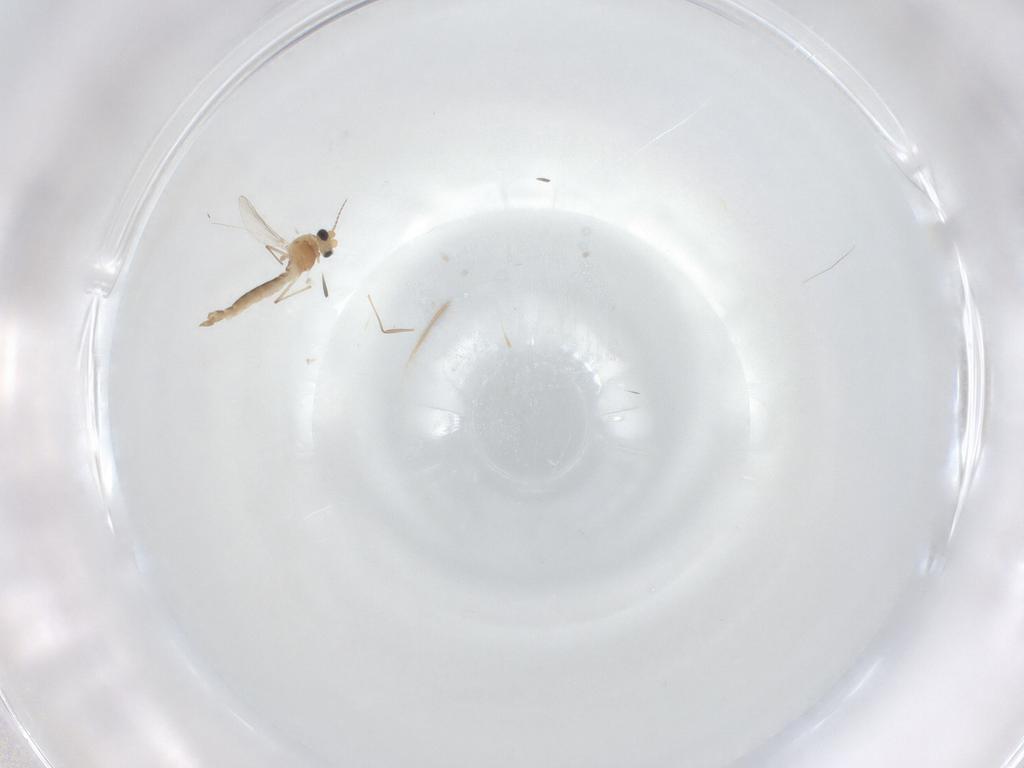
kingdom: Animalia
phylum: Arthropoda
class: Insecta
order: Diptera
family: Chironomidae
